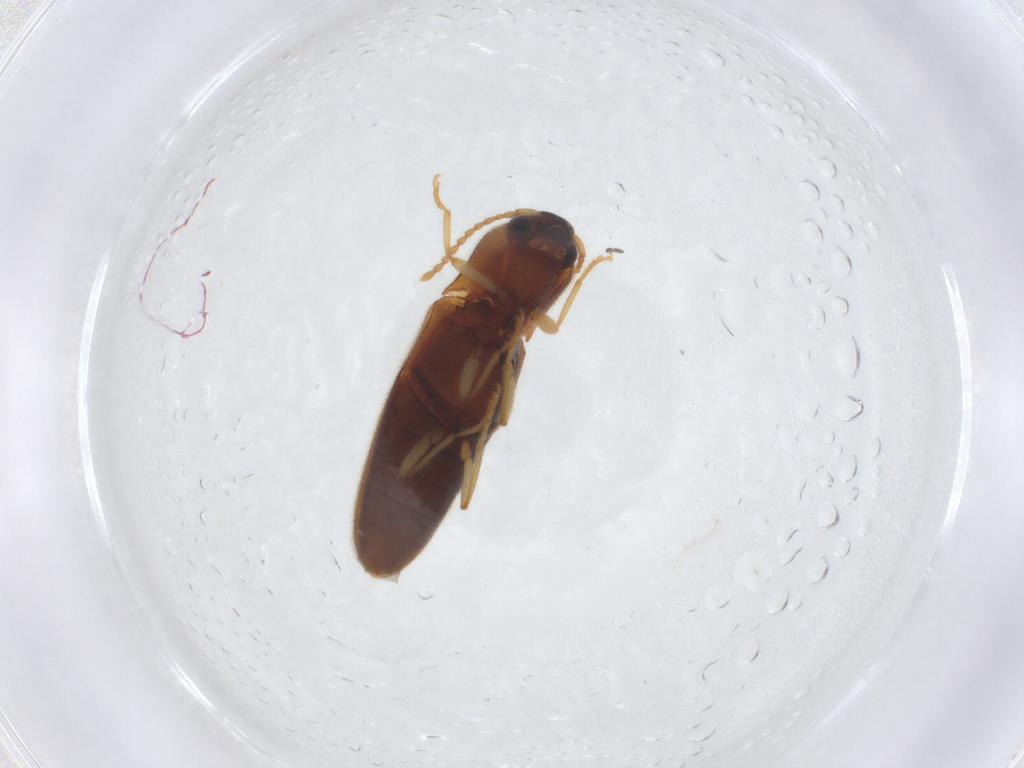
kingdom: Animalia
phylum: Arthropoda
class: Insecta
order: Coleoptera
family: Elateridae
